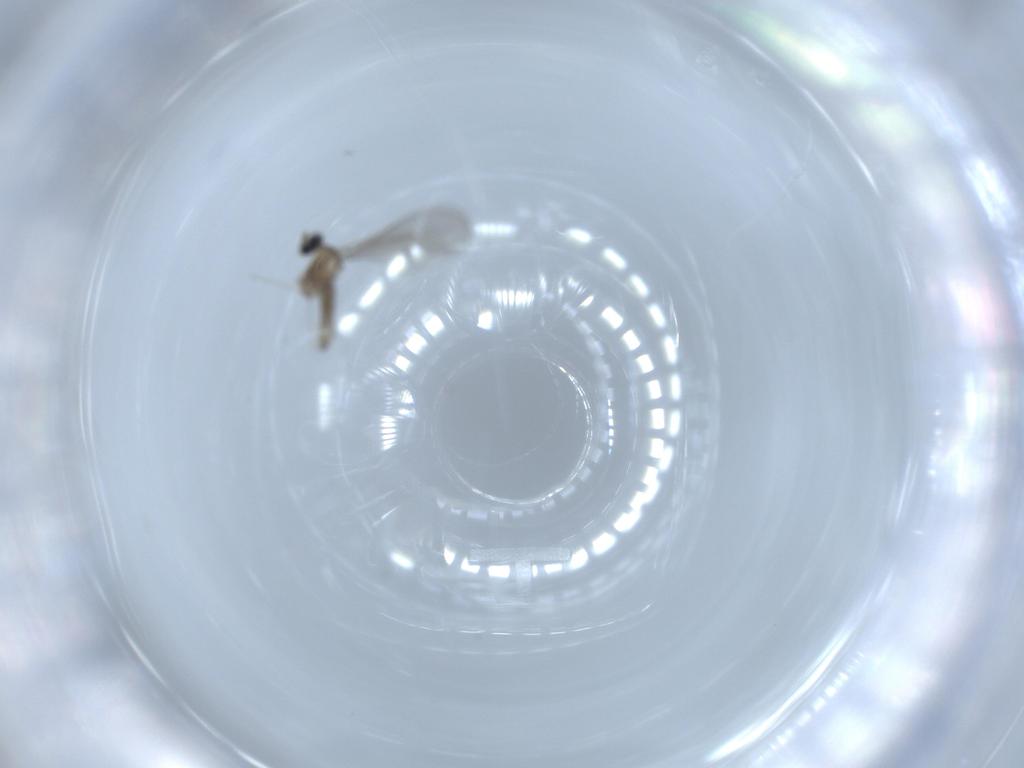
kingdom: Animalia
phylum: Arthropoda
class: Insecta
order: Diptera
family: Cecidomyiidae
